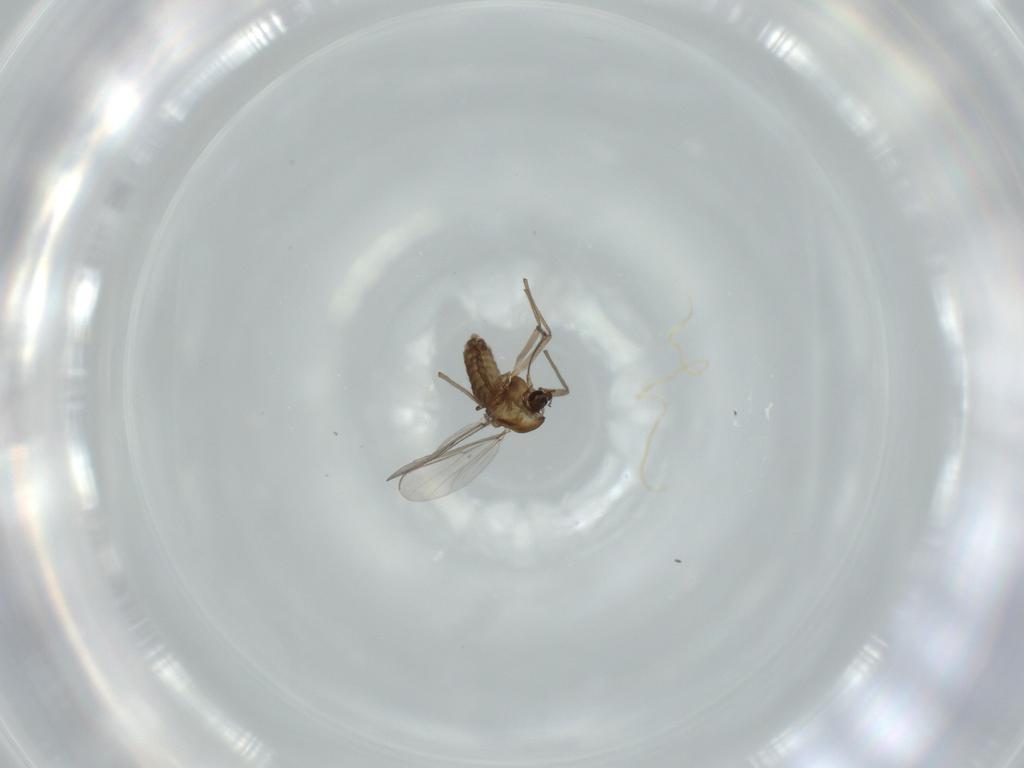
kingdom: Animalia
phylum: Arthropoda
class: Insecta
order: Diptera
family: Chironomidae
